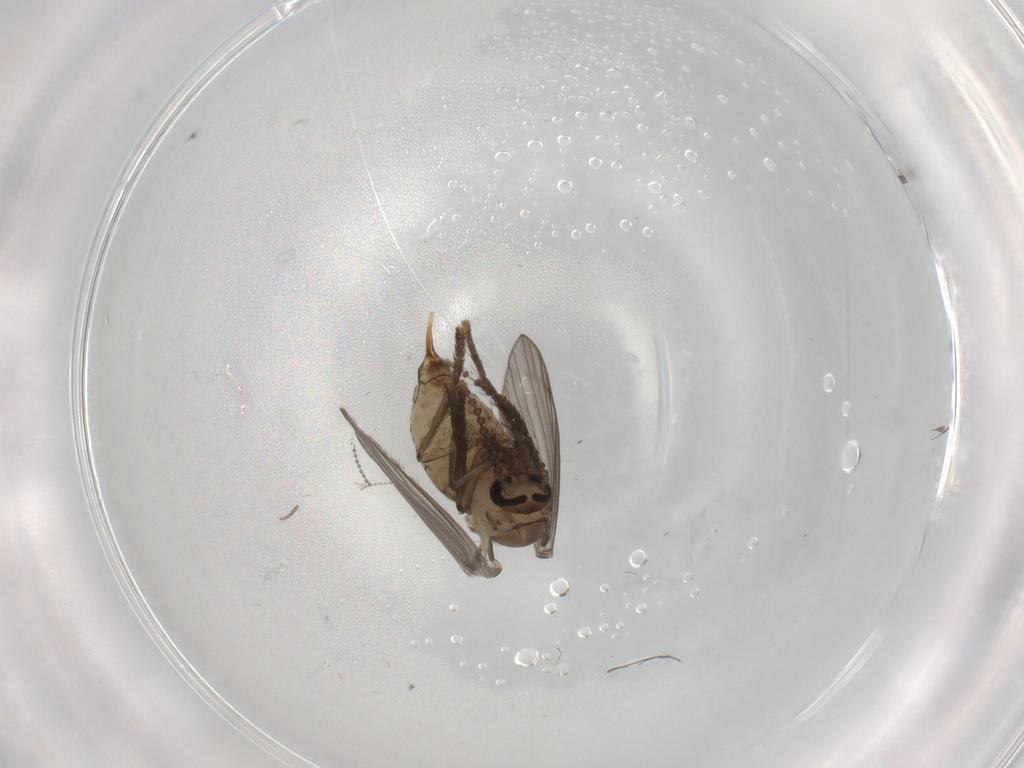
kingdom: Animalia
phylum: Arthropoda
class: Insecta
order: Diptera
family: Psychodidae
